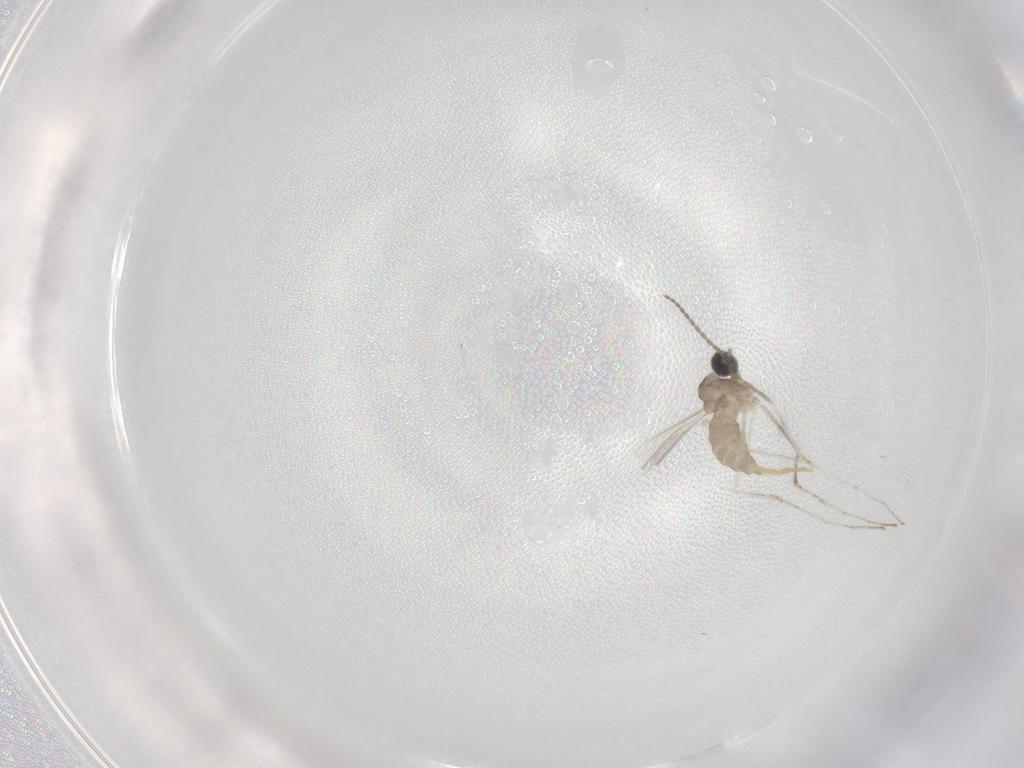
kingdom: Animalia
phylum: Arthropoda
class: Insecta
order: Diptera
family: Cecidomyiidae
